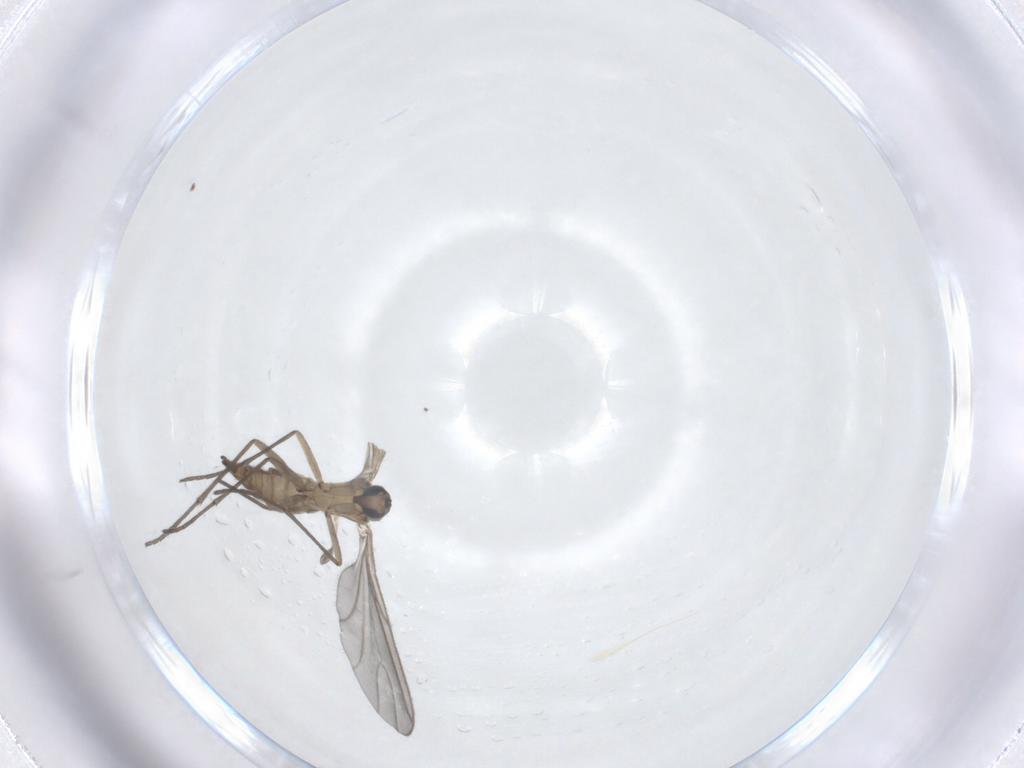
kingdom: Animalia
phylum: Arthropoda
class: Insecta
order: Diptera
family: Sciaridae
